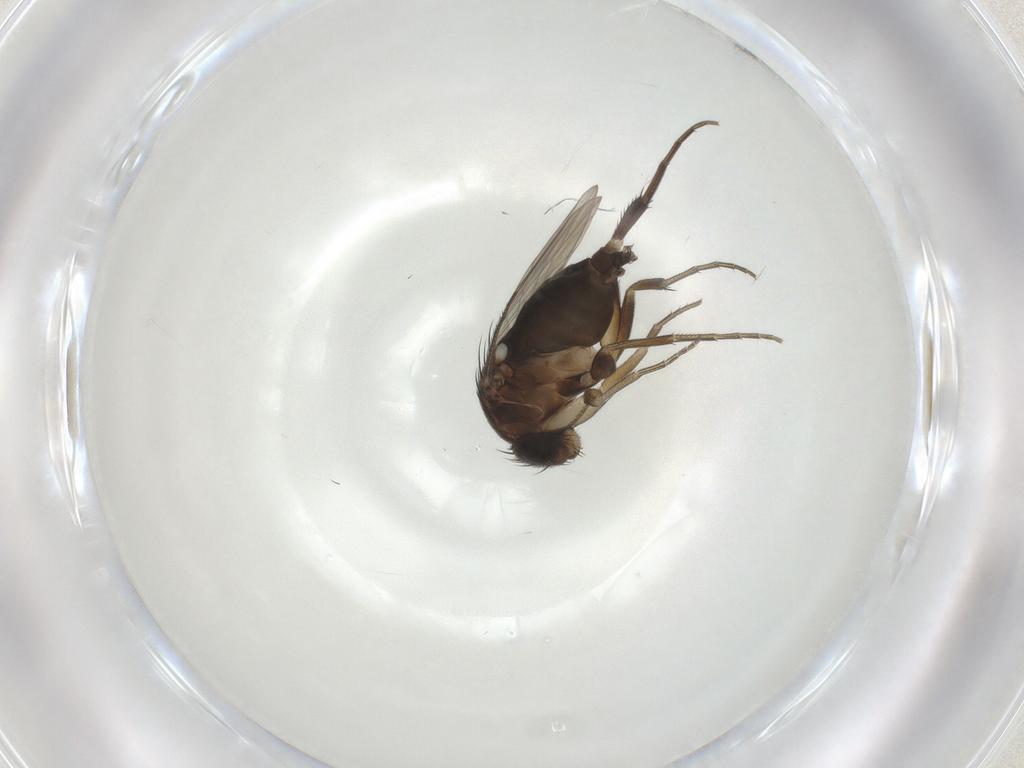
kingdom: Animalia
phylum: Arthropoda
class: Insecta
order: Diptera
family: Phoridae
